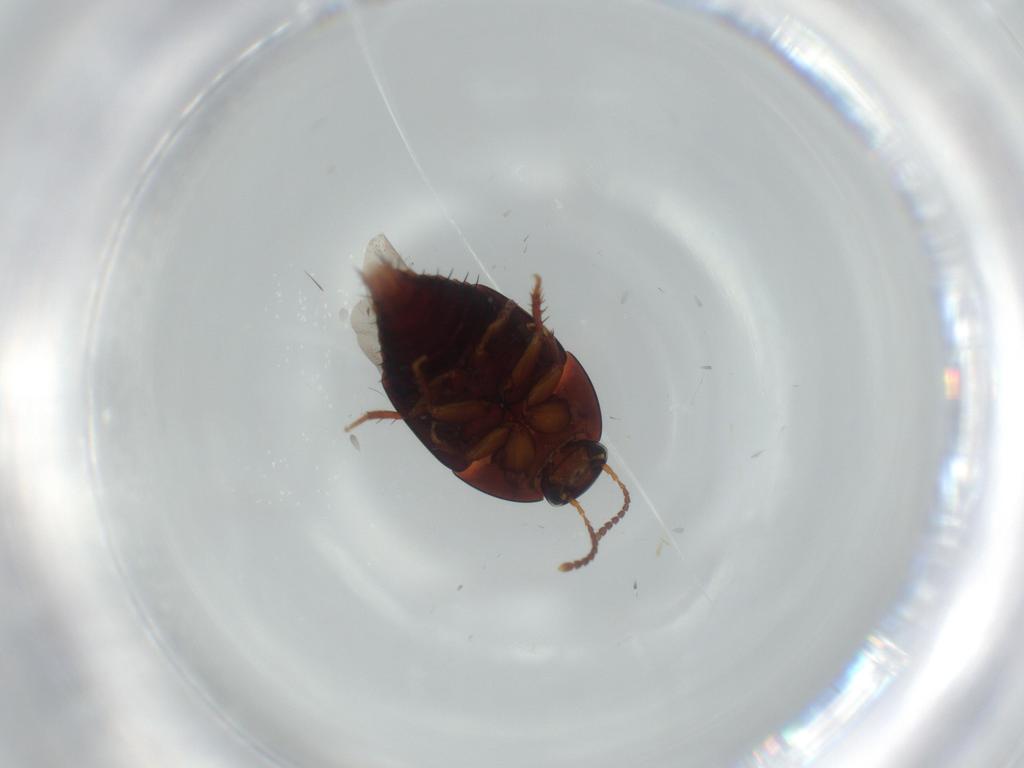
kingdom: Animalia
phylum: Arthropoda
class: Insecta
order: Coleoptera
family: Staphylinidae
